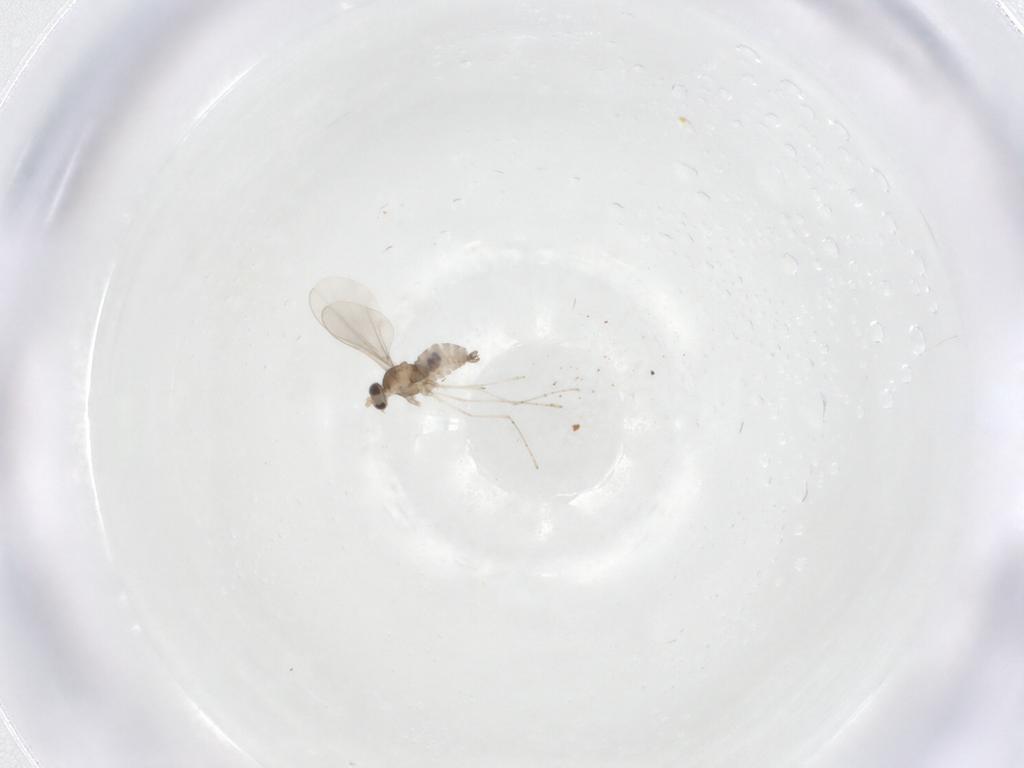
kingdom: Animalia
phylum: Arthropoda
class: Insecta
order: Diptera
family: Cecidomyiidae
